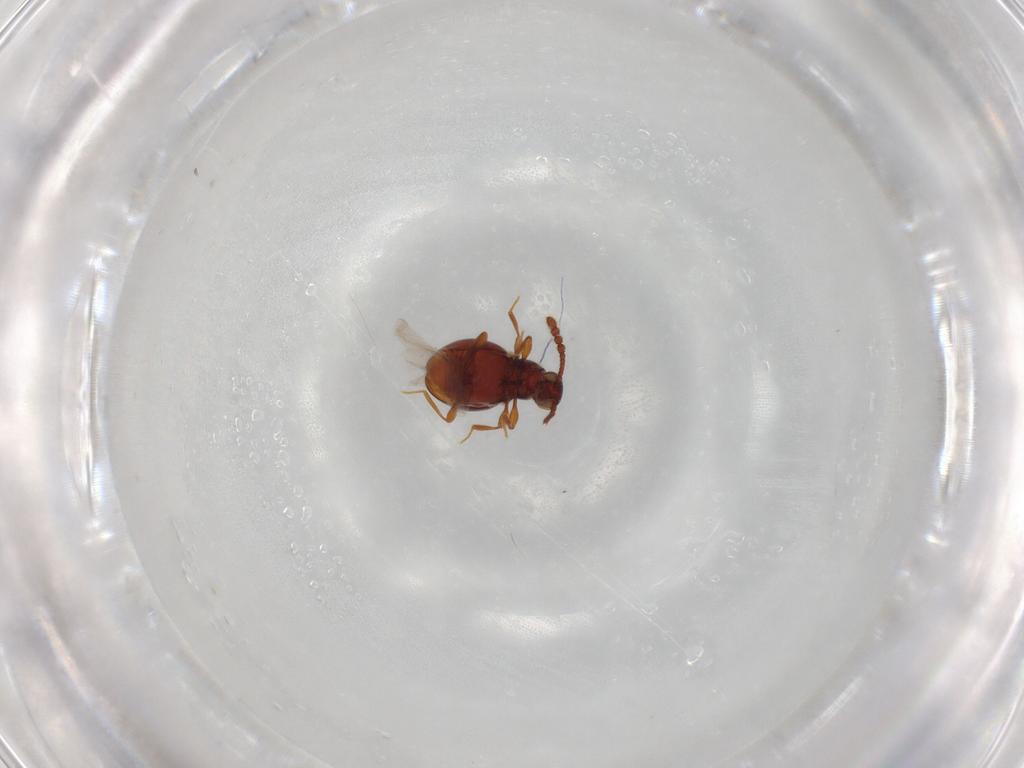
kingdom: Animalia
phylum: Arthropoda
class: Insecta
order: Coleoptera
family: Staphylinidae
